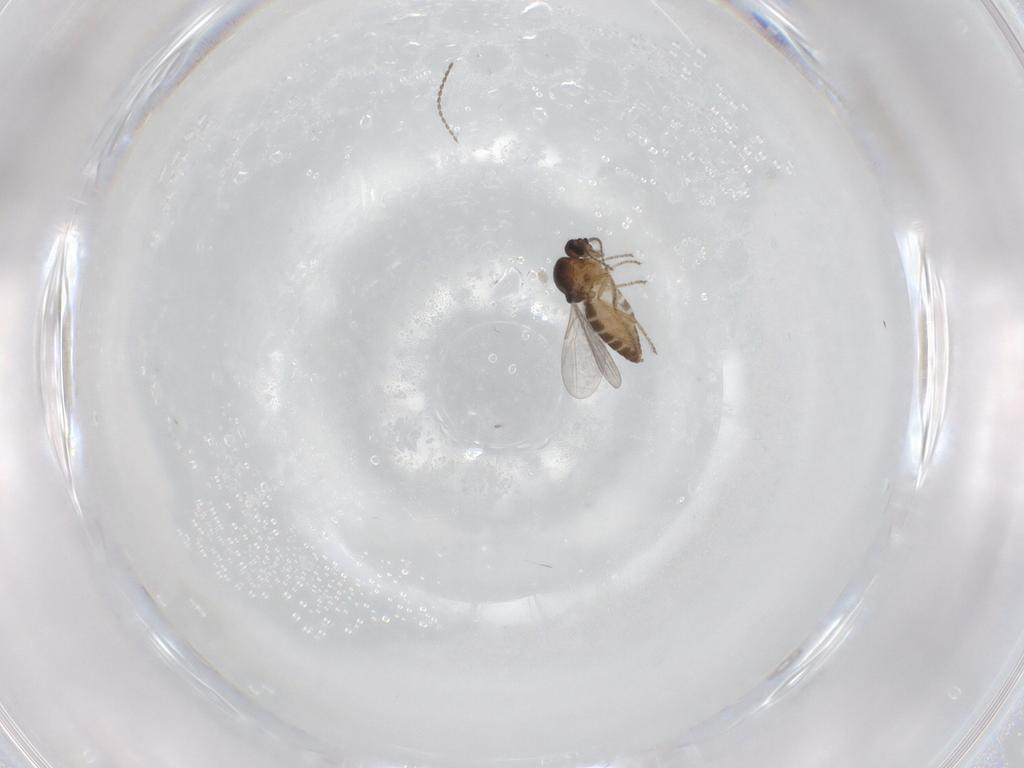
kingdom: Animalia
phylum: Arthropoda
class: Insecta
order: Diptera
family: Cecidomyiidae
